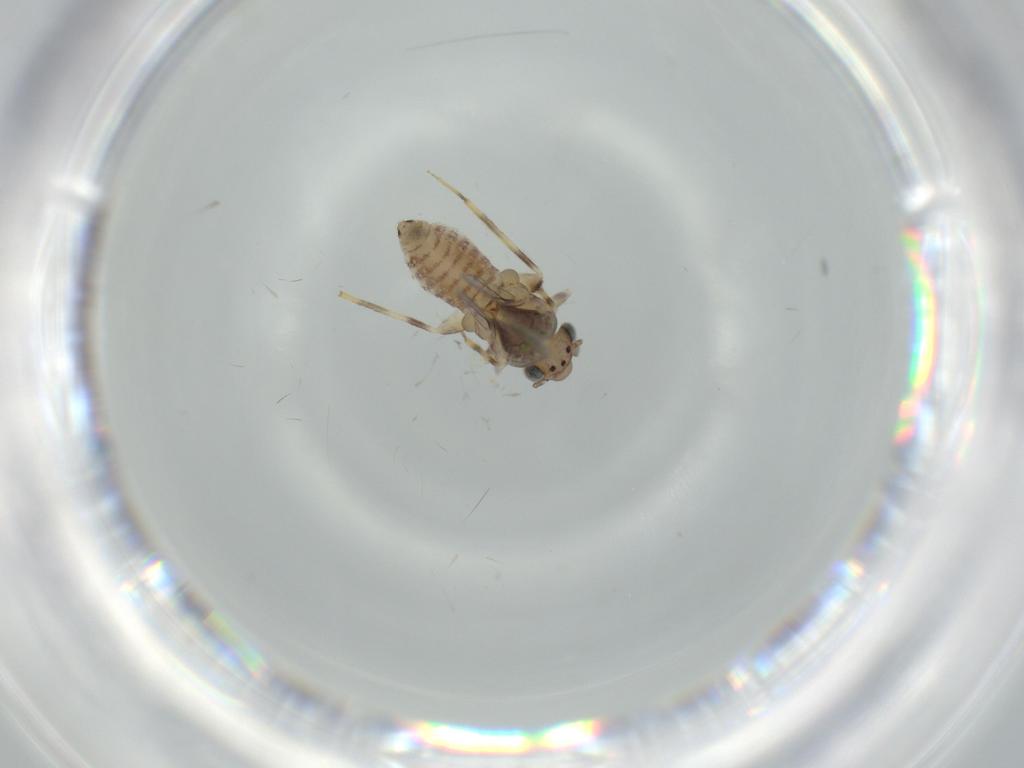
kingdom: Animalia
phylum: Arthropoda
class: Insecta
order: Psocodea
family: Lepidopsocidae
